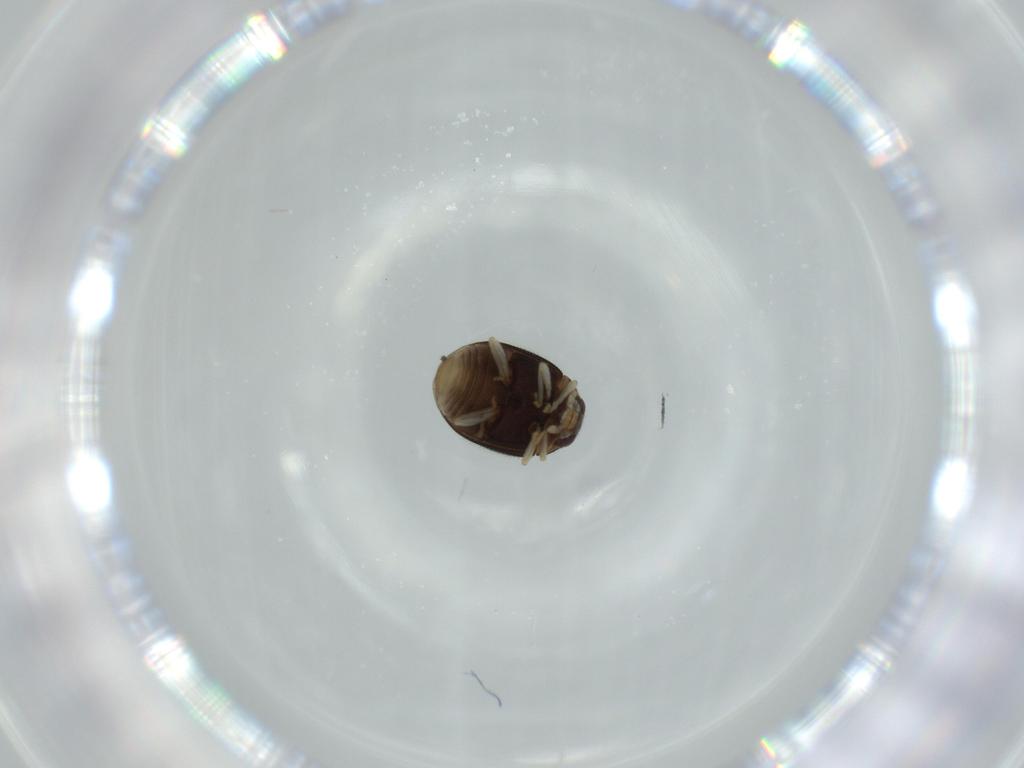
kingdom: Animalia
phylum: Arthropoda
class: Insecta
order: Coleoptera
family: Coccinellidae
